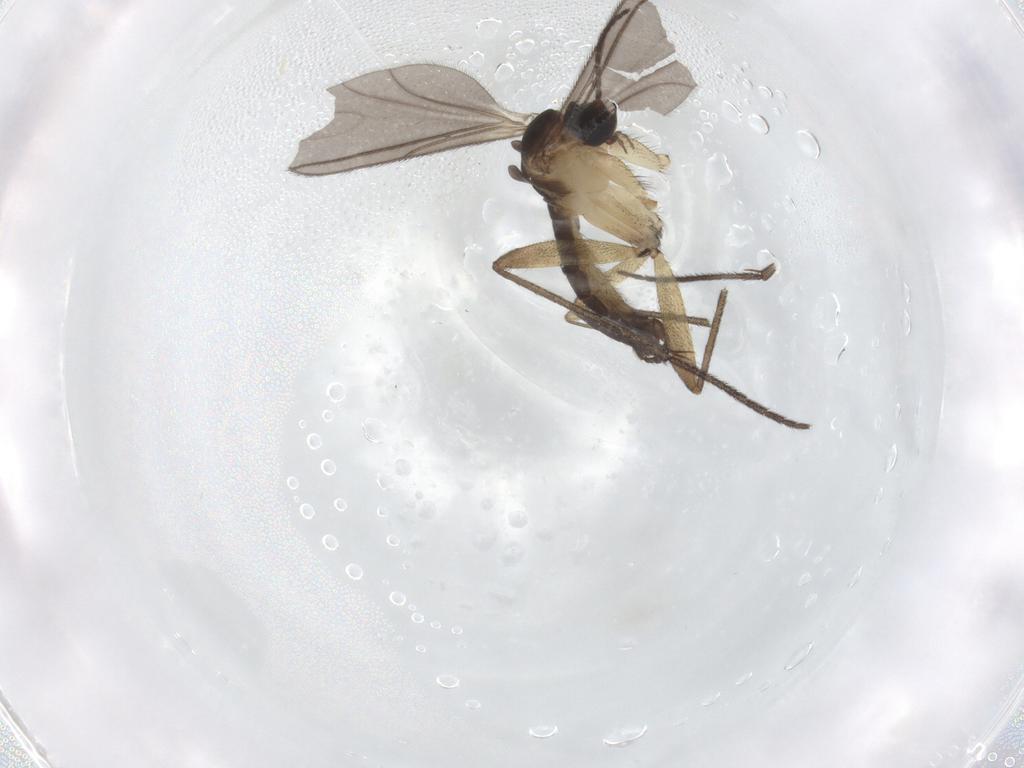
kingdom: Animalia
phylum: Arthropoda
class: Insecta
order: Diptera
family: Sciaridae
